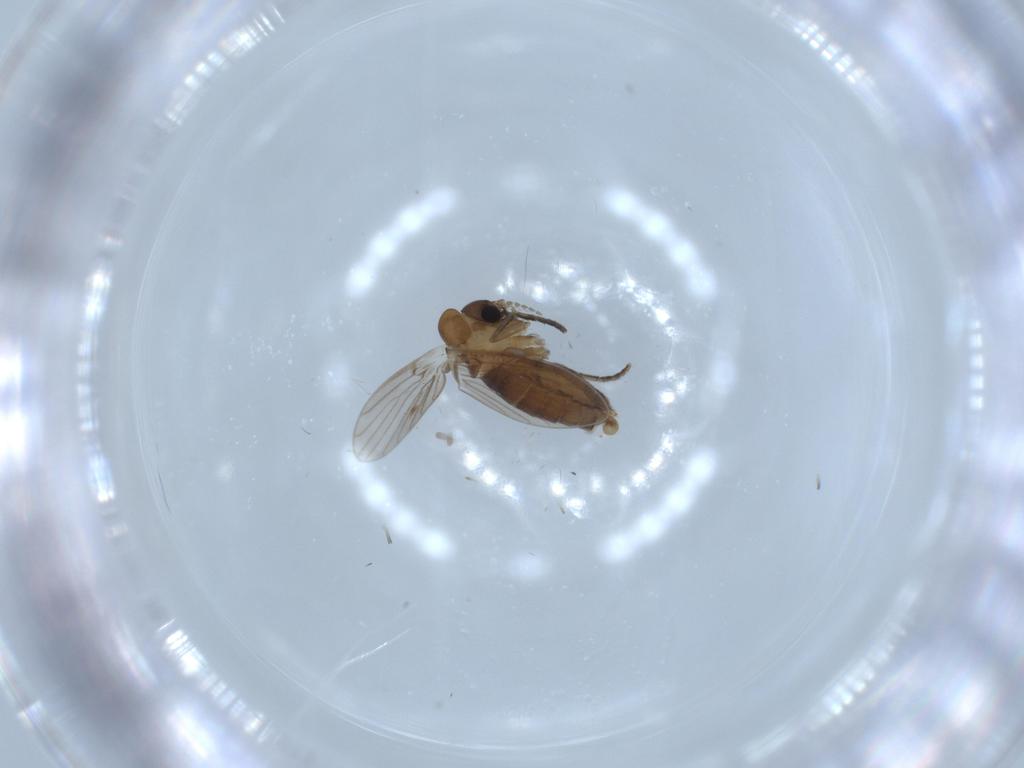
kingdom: Animalia
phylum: Arthropoda
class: Insecta
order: Diptera
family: Psychodidae
